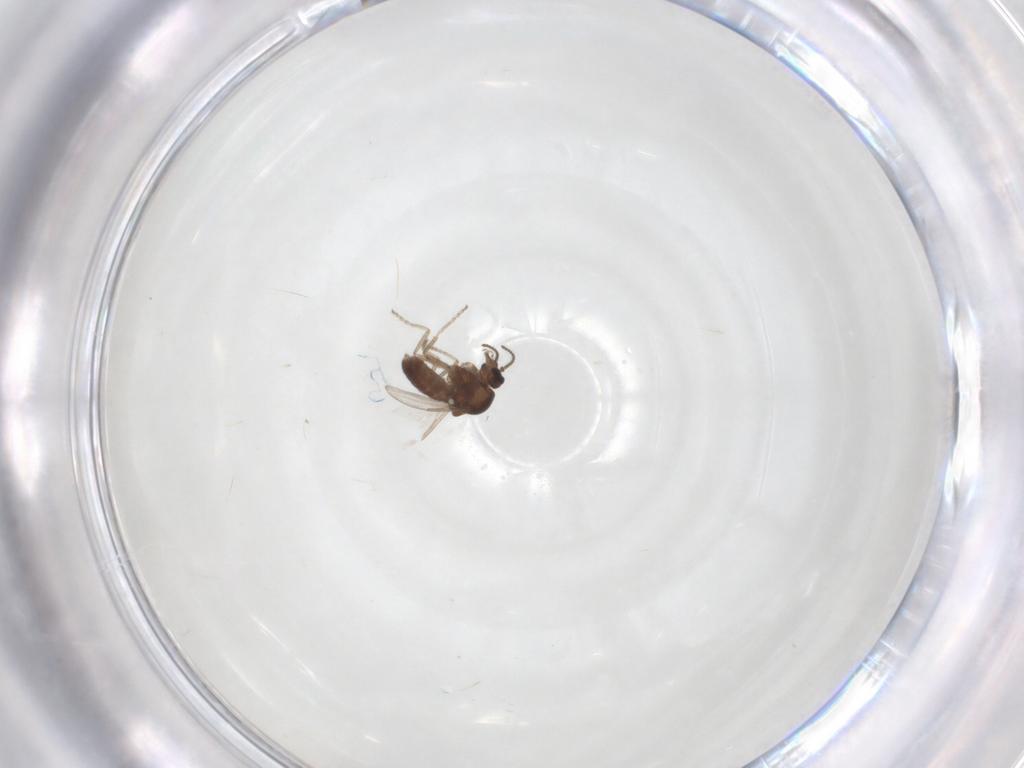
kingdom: Animalia
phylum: Arthropoda
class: Insecta
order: Diptera
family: Ceratopogonidae
